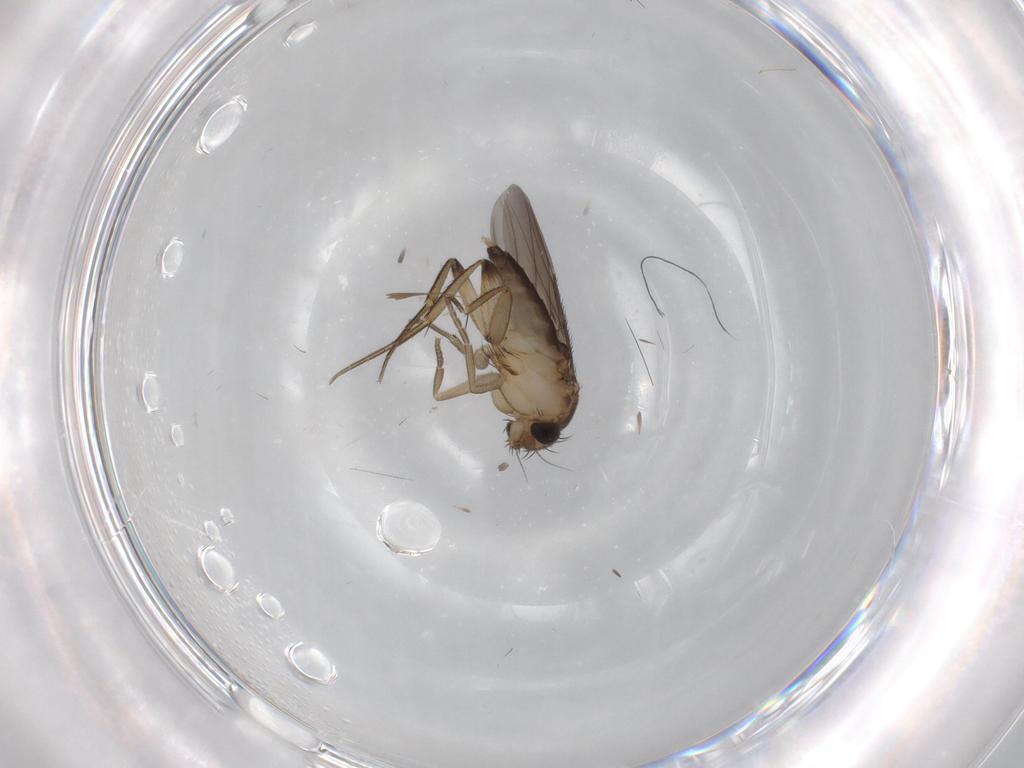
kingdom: Animalia
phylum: Arthropoda
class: Insecta
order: Diptera
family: Phoridae
